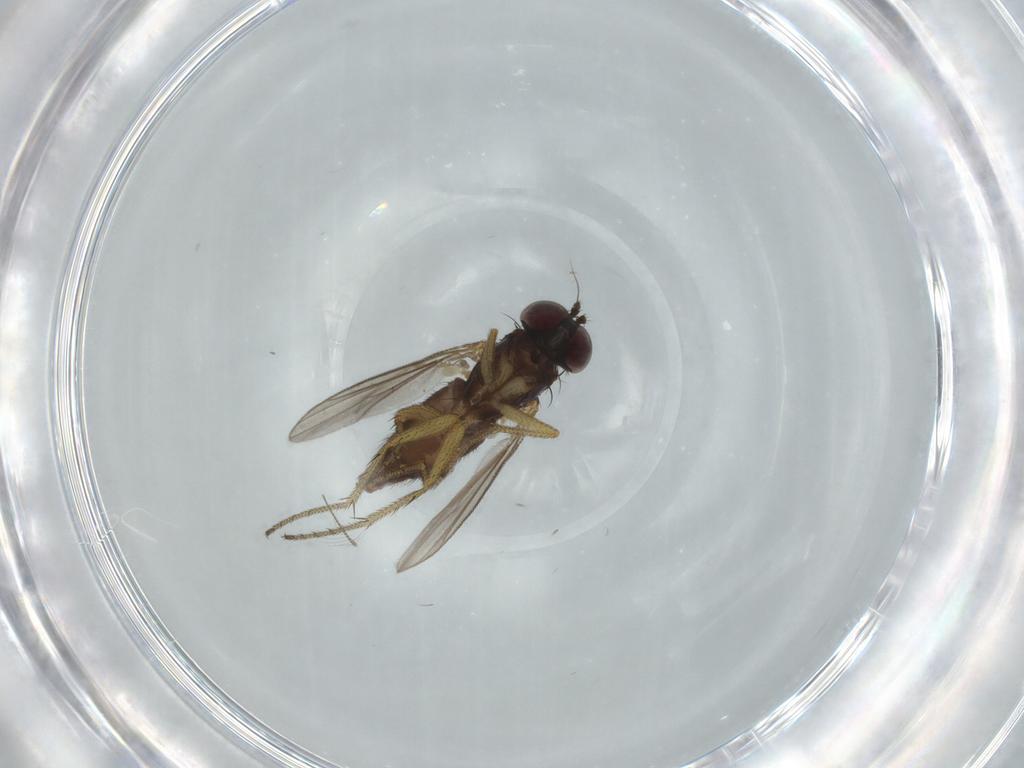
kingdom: Animalia
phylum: Arthropoda
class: Insecta
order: Diptera
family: Dolichopodidae
